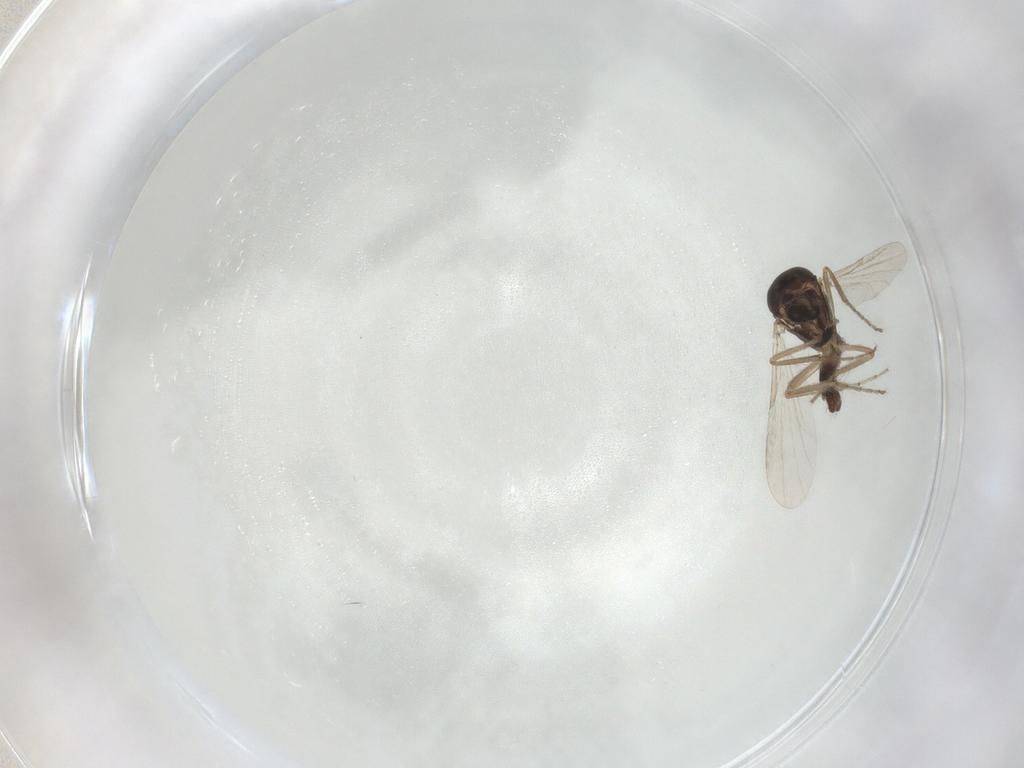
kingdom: Animalia
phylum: Arthropoda
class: Insecta
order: Diptera
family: Ceratopogonidae
